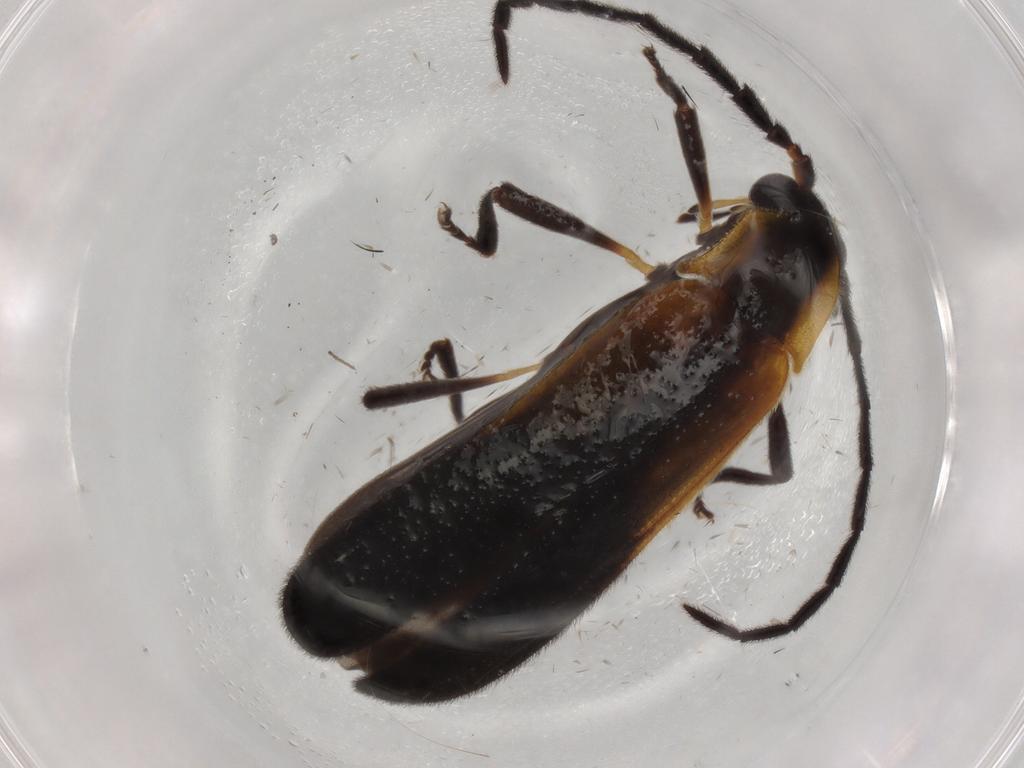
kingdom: Animalia
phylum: Arthropoda
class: Insecta
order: Coleoptera
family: Lycidae
